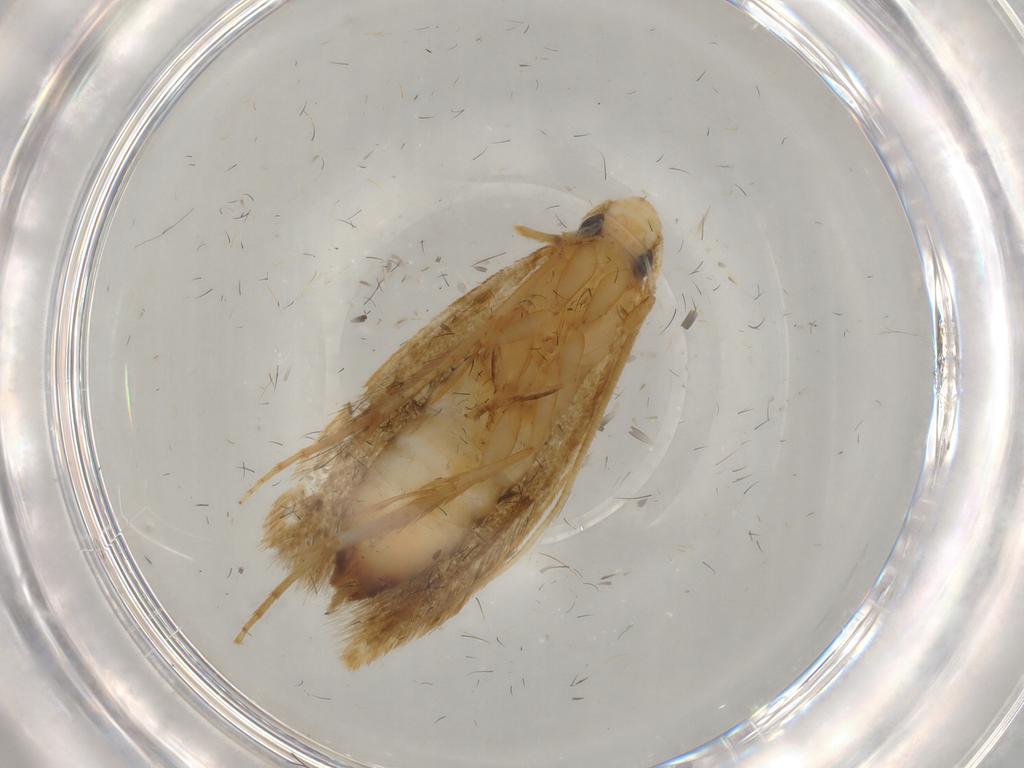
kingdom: Animalia
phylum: Arthropoda
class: Insecta
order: Lepidoptera
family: Tineidae
